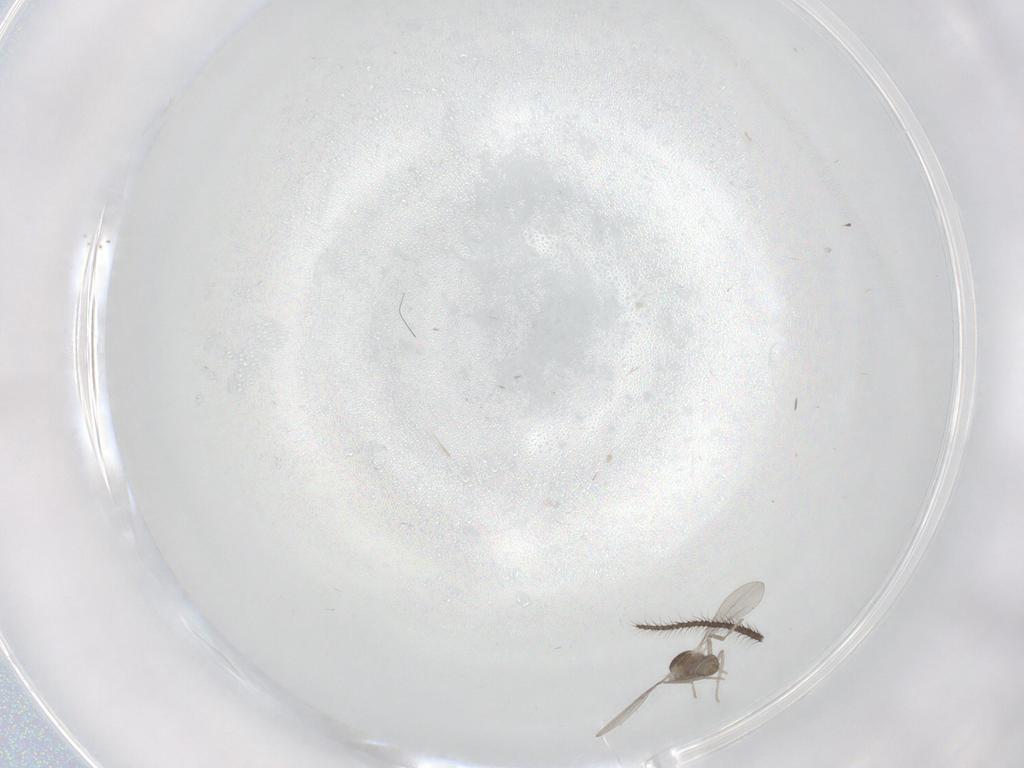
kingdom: Animalia
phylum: Arthropoda
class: Insecta
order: Diptera
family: Cecidomyiidae
